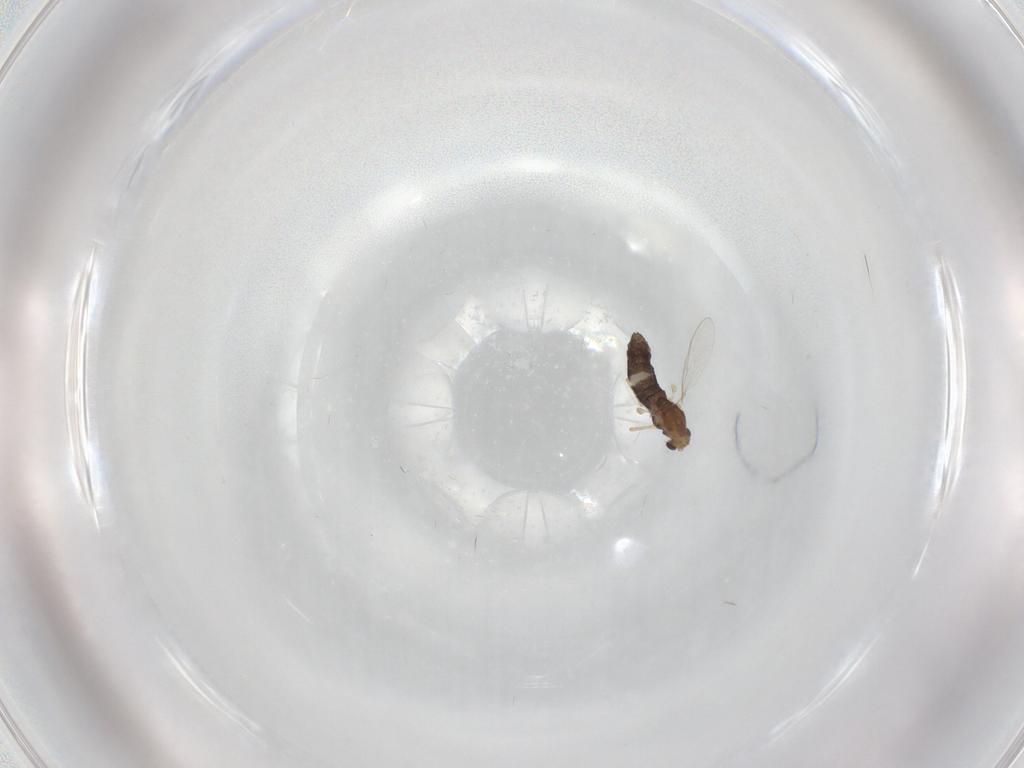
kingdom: Animalia
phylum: Arthropoda
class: Insecta
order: Diptera
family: Chironomidae
